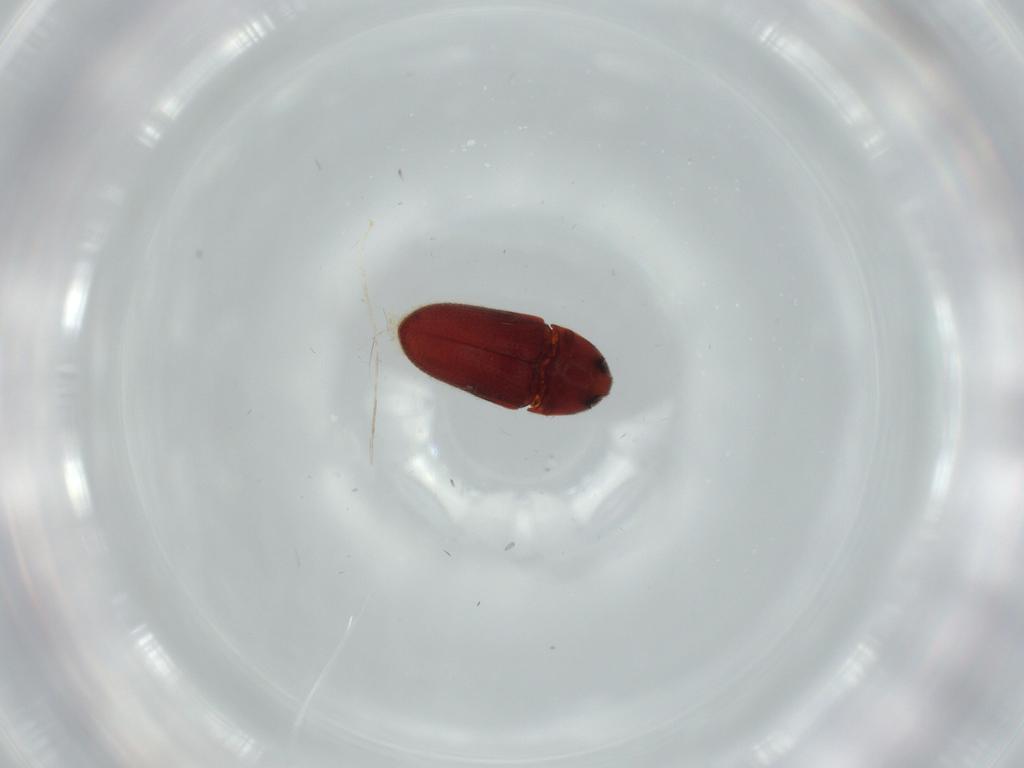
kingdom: Animalia
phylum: Arthropoda
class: Insecta
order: Coleoptera
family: Throscidae
